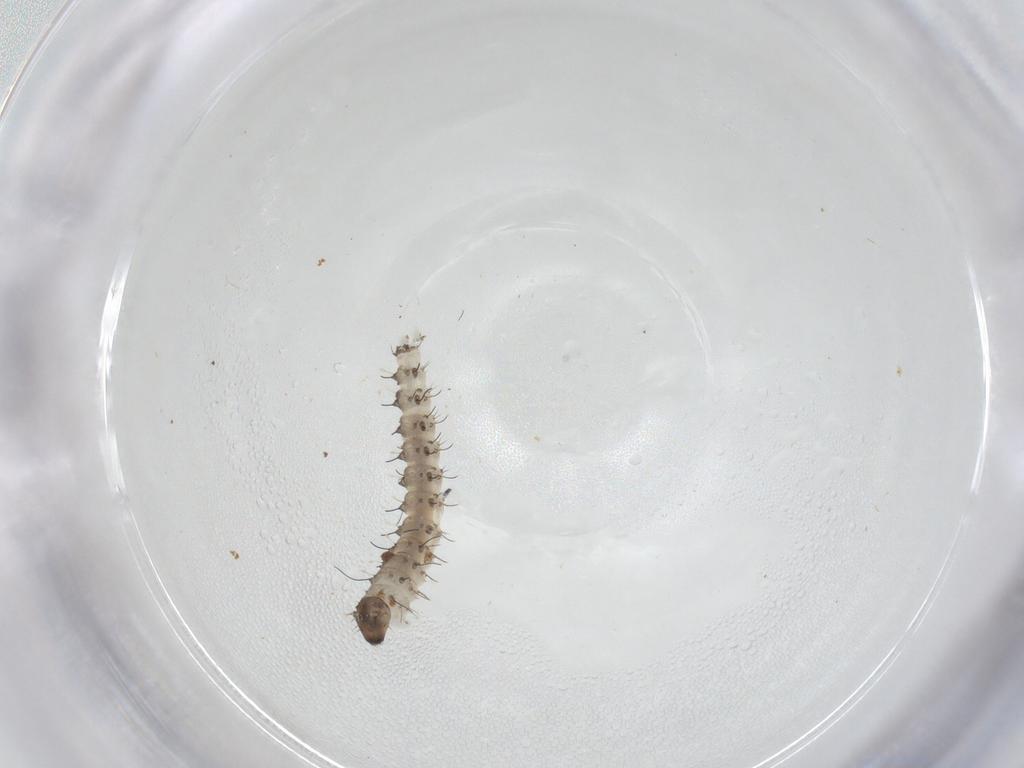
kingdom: Animalia
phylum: Arthropoda
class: Insecta
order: Diptera
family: Ceratopogonidae
